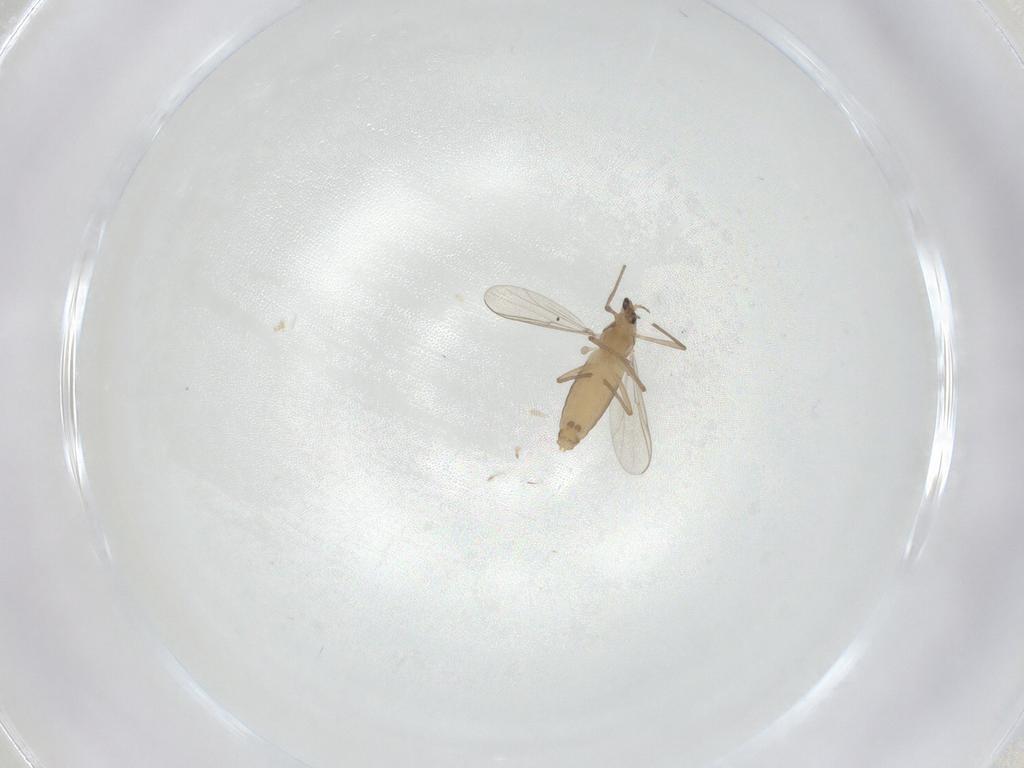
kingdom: Animalia
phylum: Arthropoda
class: Insecta
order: Diptera
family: Chironomidae
